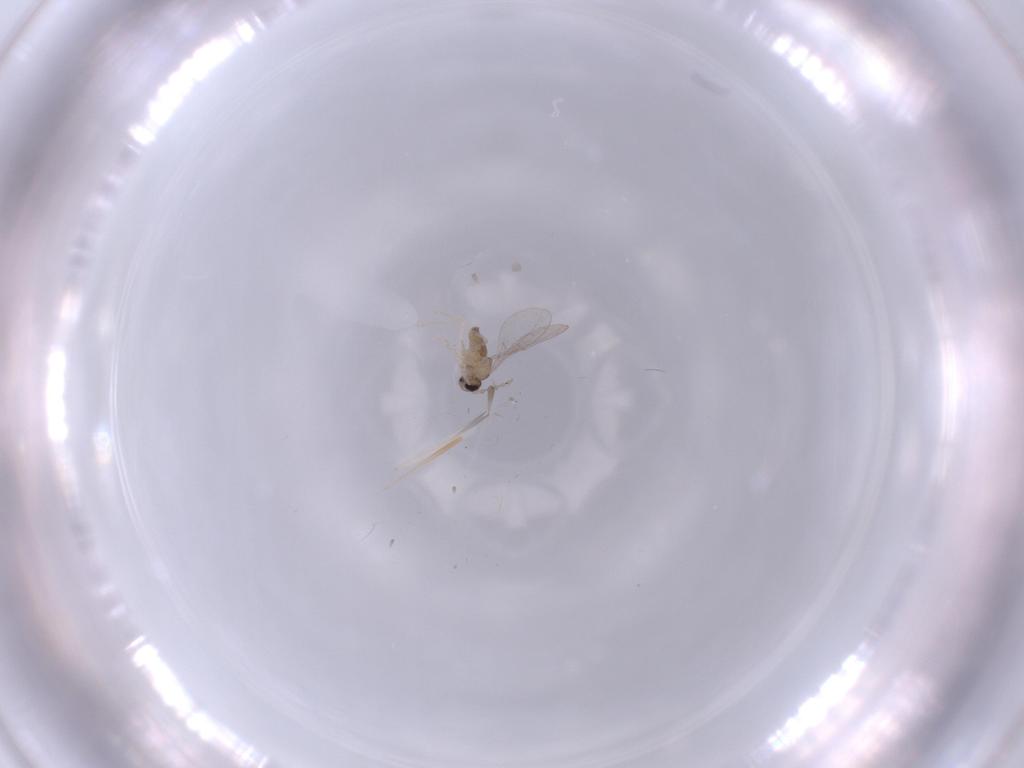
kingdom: Animalia
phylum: Arthropoda
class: Insecta
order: Diptera
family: Cecidomyiidae
